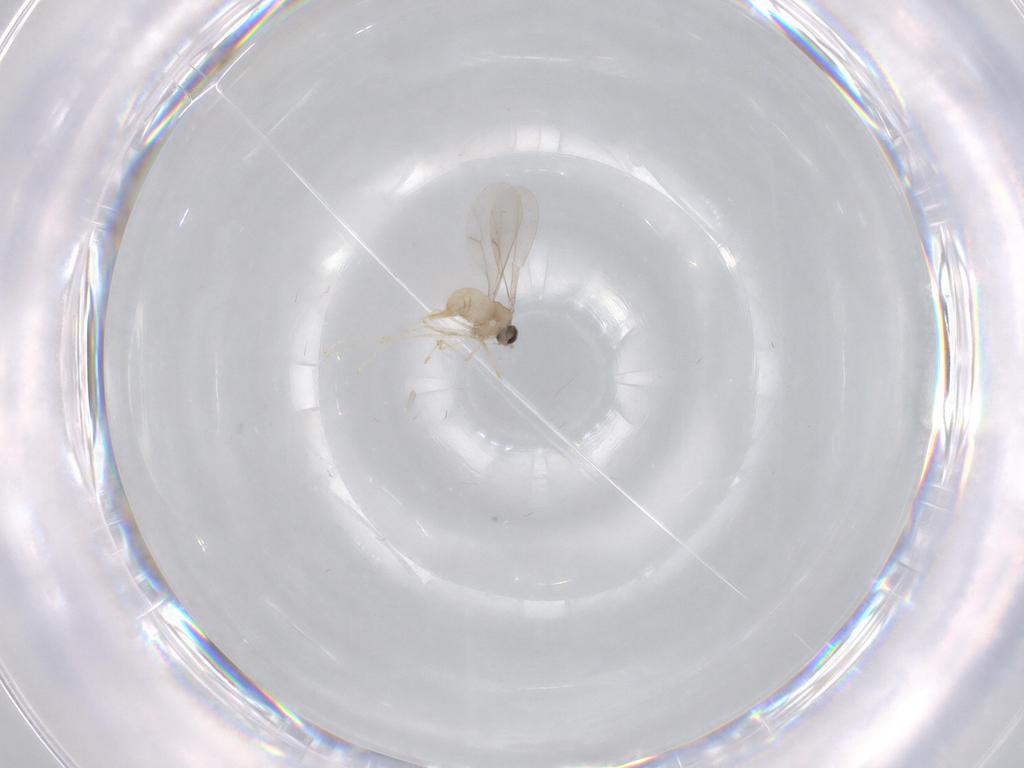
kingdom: Animalia
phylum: Arthropoda
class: Insecta
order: Diptera
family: Cecidomyiidae
